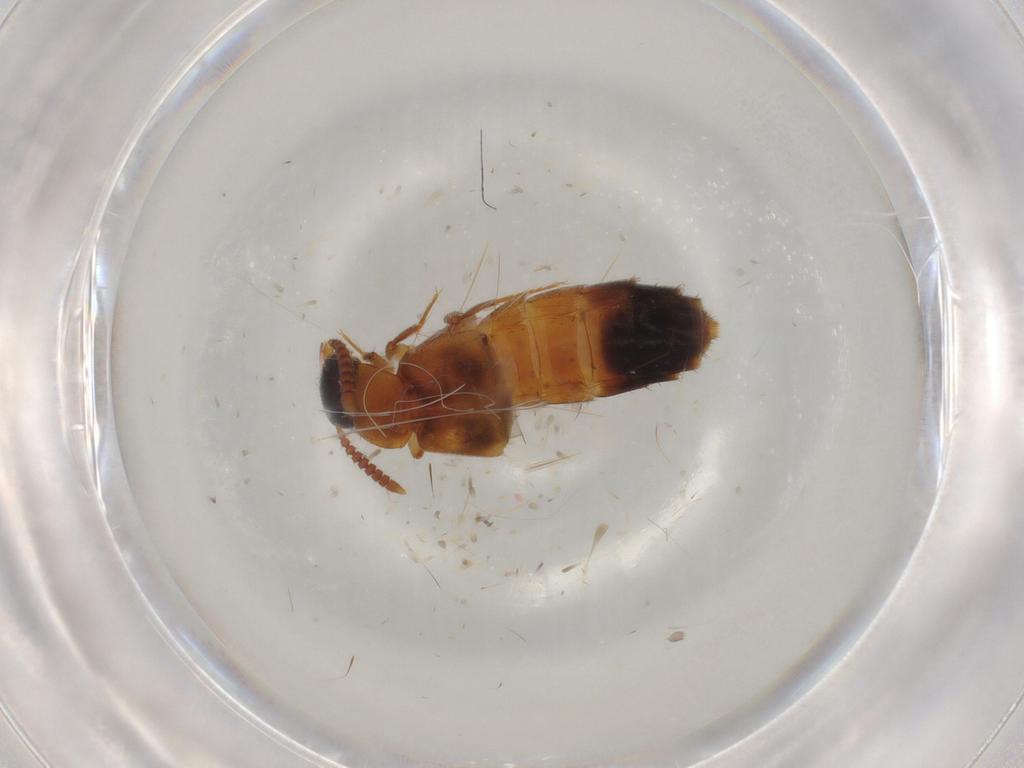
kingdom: Animalia
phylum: Arthropoda
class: Insecta
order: Coleoptera
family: Staphylinidae
